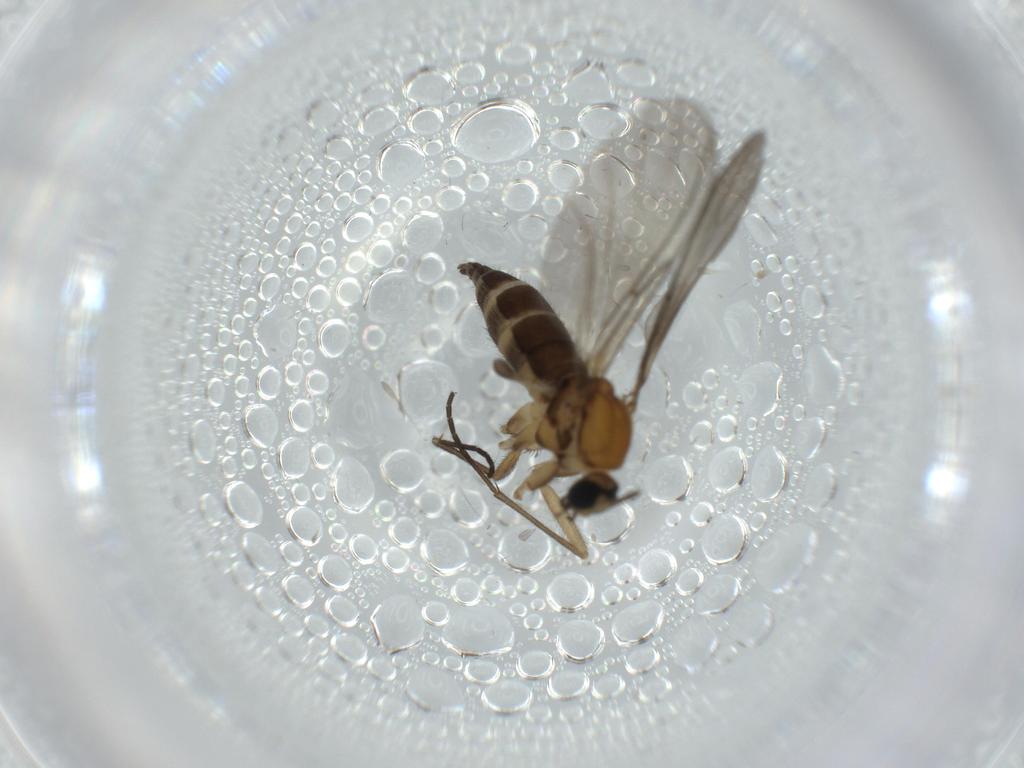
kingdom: Animalia
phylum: Arthropoda
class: Insecta
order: Diptera
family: Sciaridae
